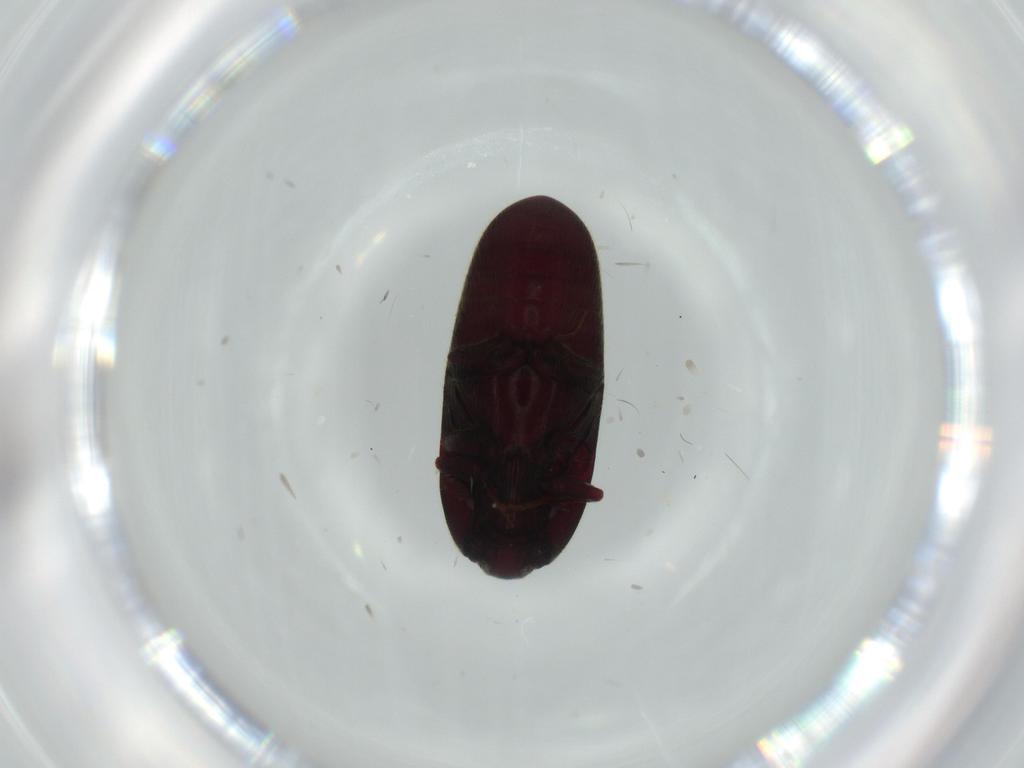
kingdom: Animalia
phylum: Arthropoda
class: Insecta
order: Coleoptera
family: Throscidae
